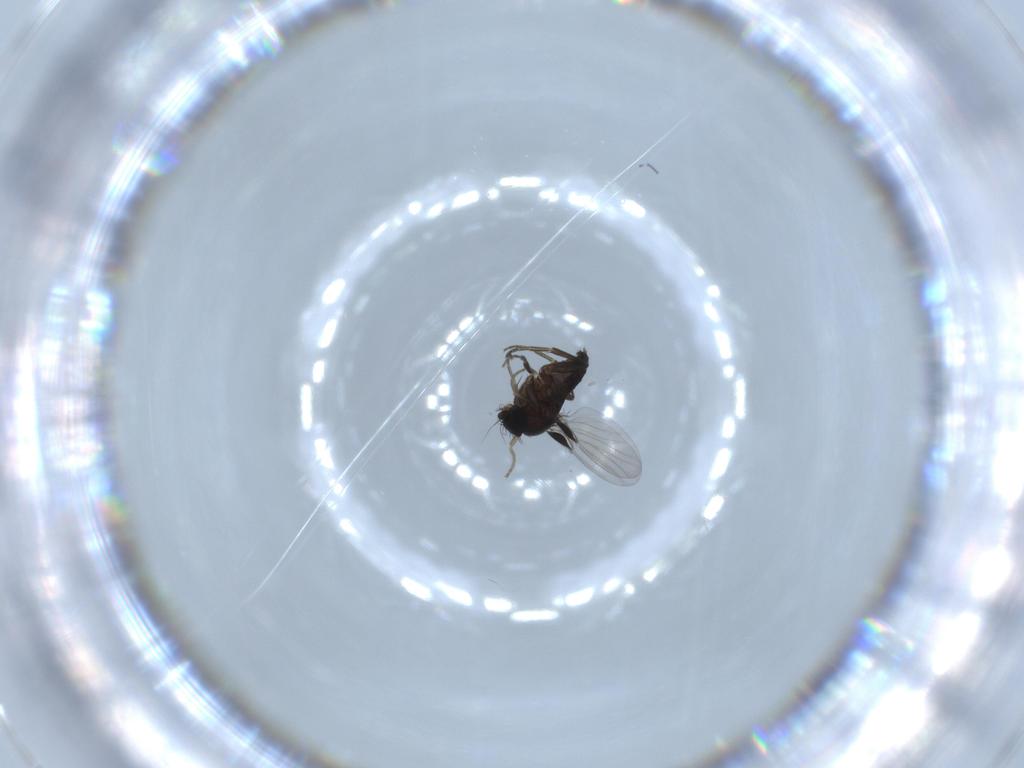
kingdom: Animalia
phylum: Arthropoda
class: Insecta
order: Diptera
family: Phoridae
